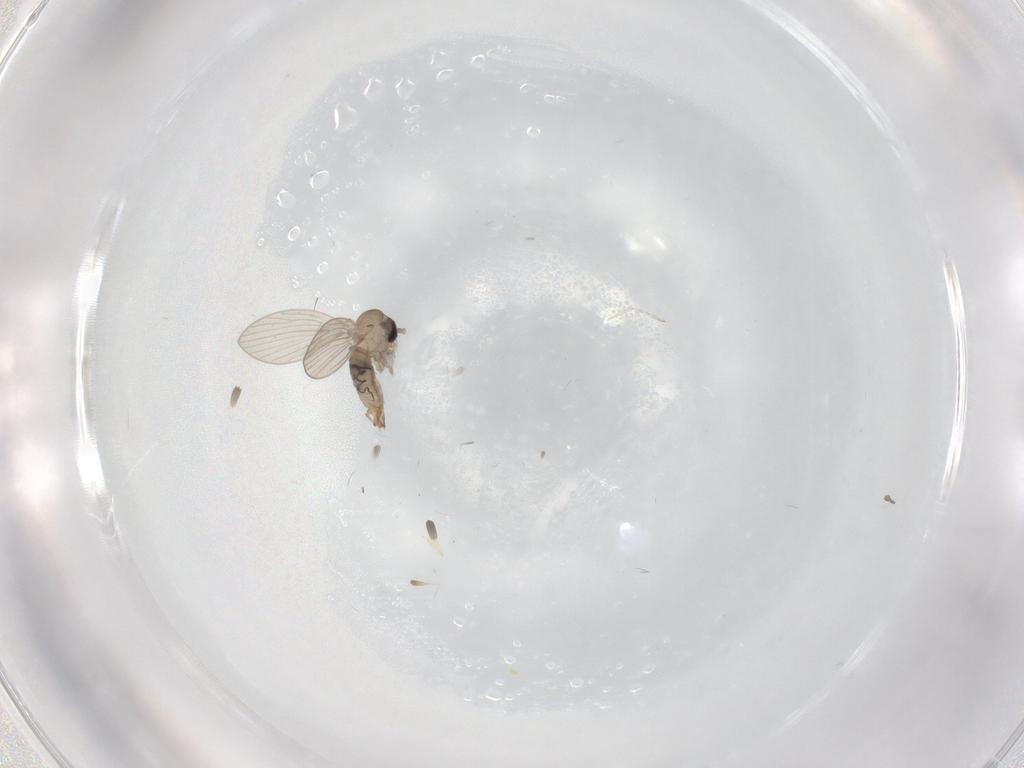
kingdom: Animalia
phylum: Arthropoda
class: Insecta
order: Diptera
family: Psychodidae
